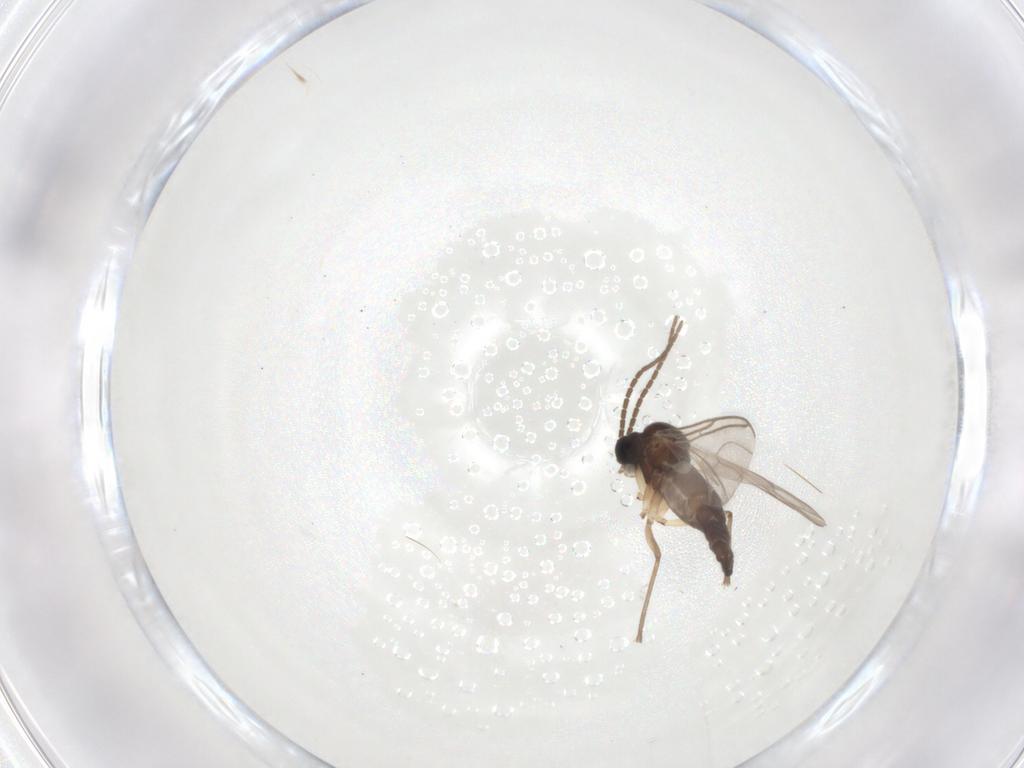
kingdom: Animalia
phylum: Arthropoda
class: Insecta
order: Diptera
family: Sciaridae
